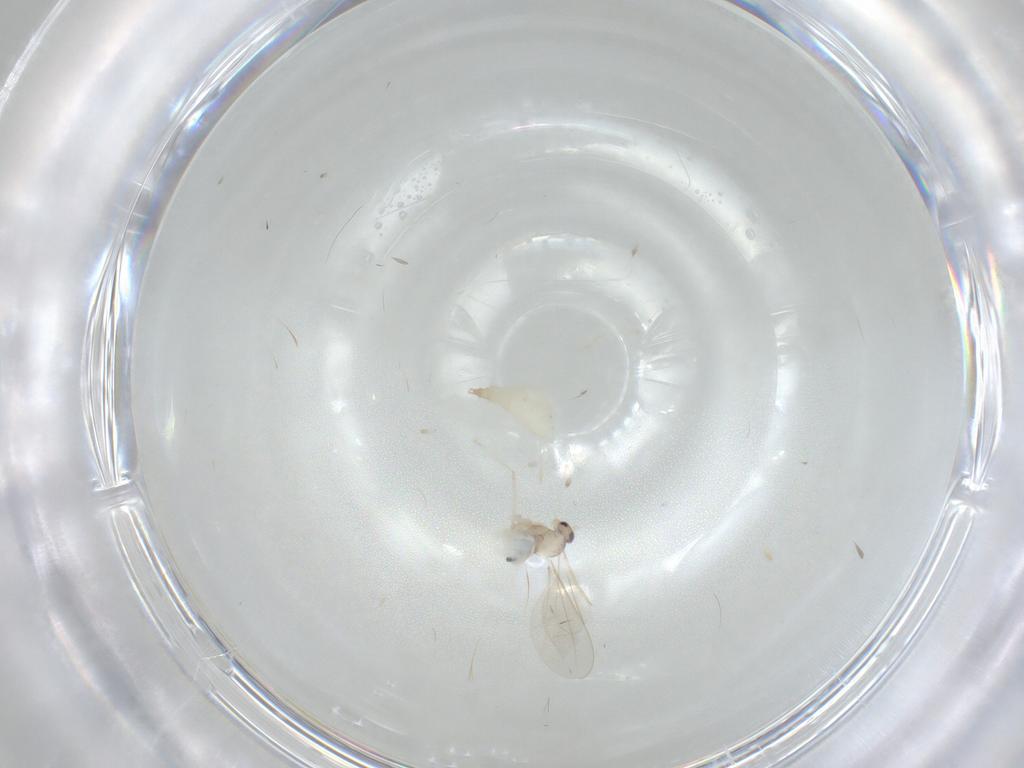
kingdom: Animalia
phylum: Arthropoda
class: Insecta
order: Diptera
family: Cecidomyiidae
